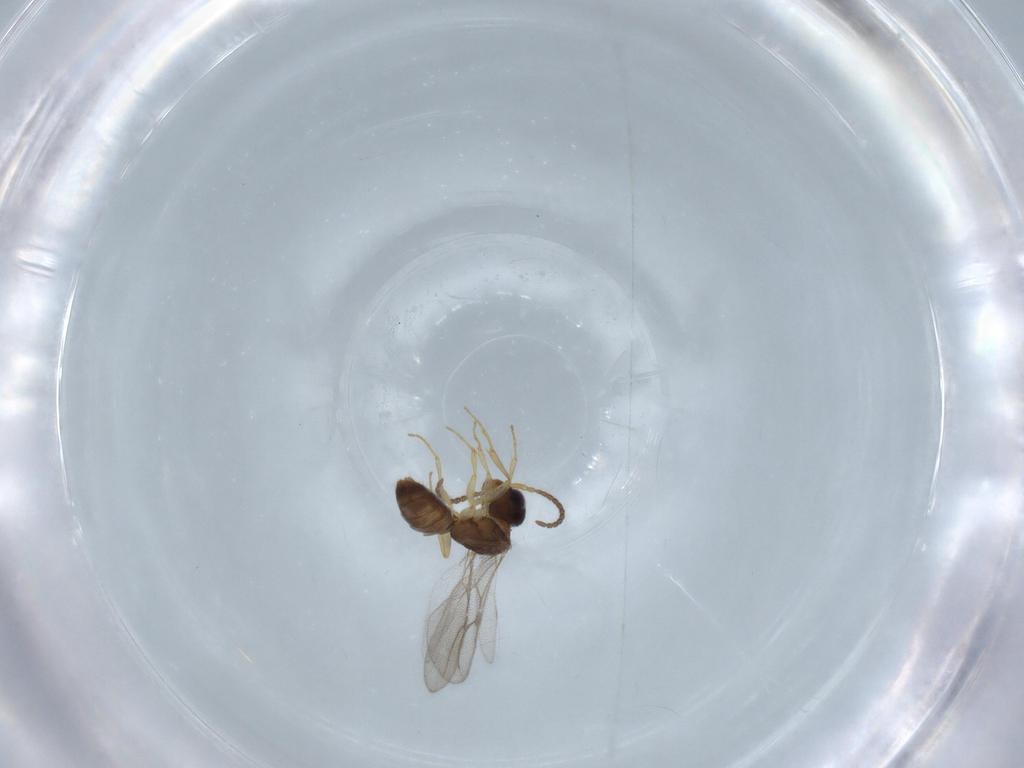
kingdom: Animalia
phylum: Arthropoda
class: Insecta
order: Hymenoptera
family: Bethylidae
